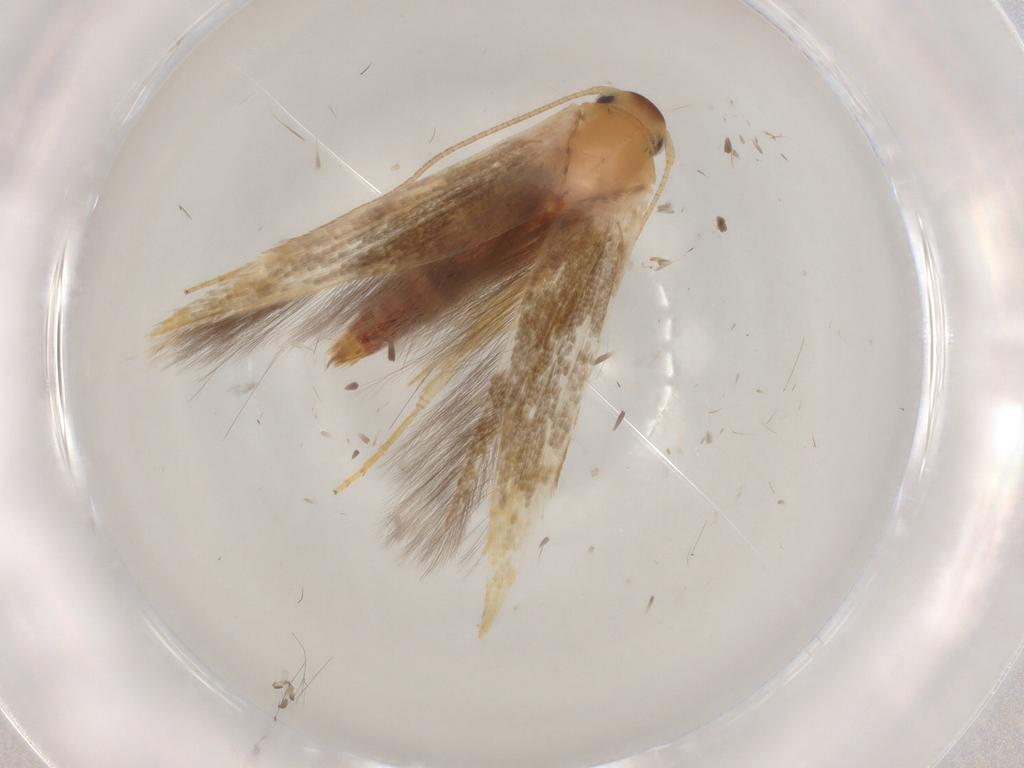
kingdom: Animalia
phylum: Arthropoda
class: Insecta
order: Lepidoptera
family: Stathmopodidae
